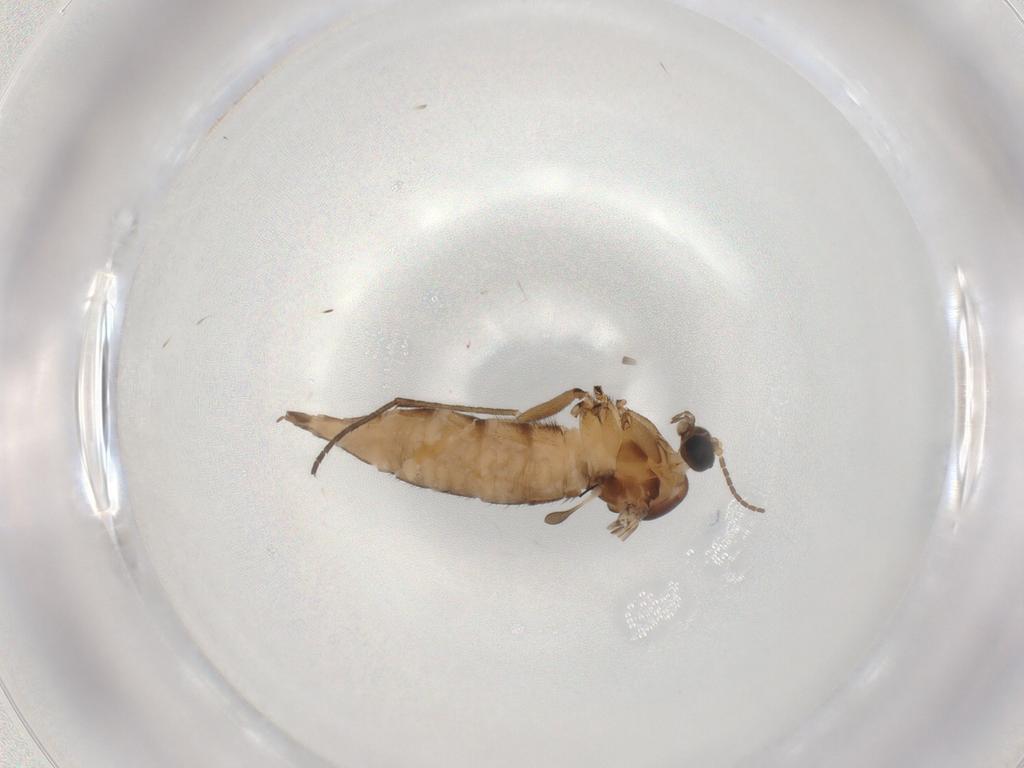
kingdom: Animalia
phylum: Arthropoda
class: Insecta
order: Diptera
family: Sciaridae
